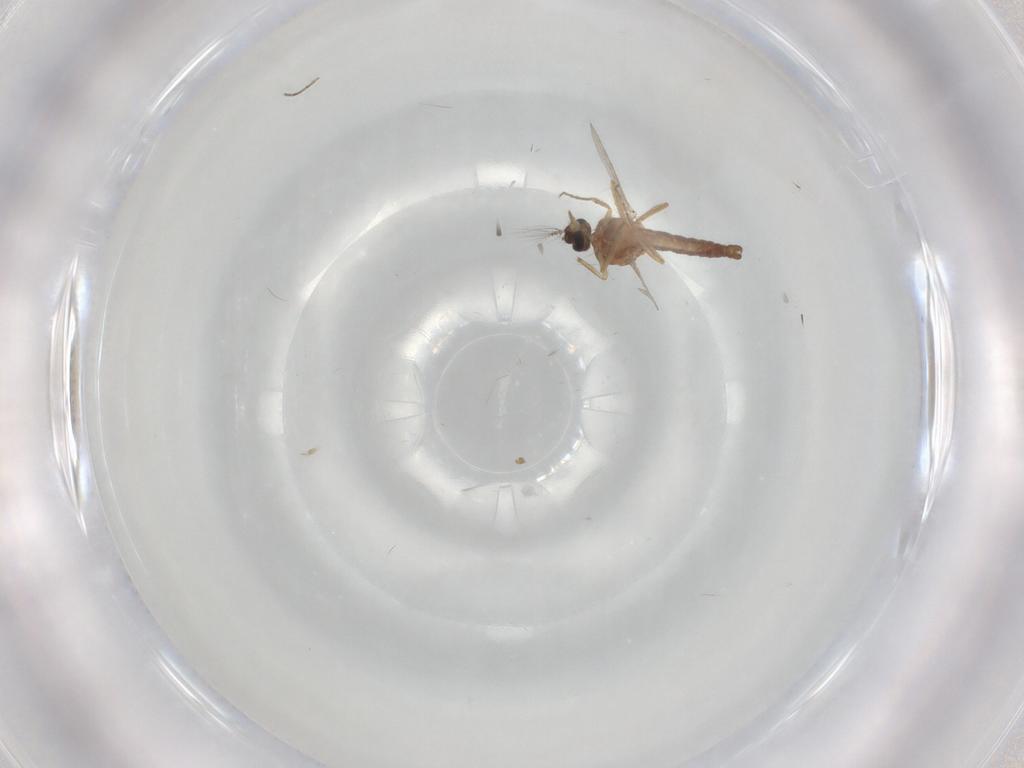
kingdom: Animalia
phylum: Arthropoda
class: Insecta
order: Diptera
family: Ceratopogonidae
